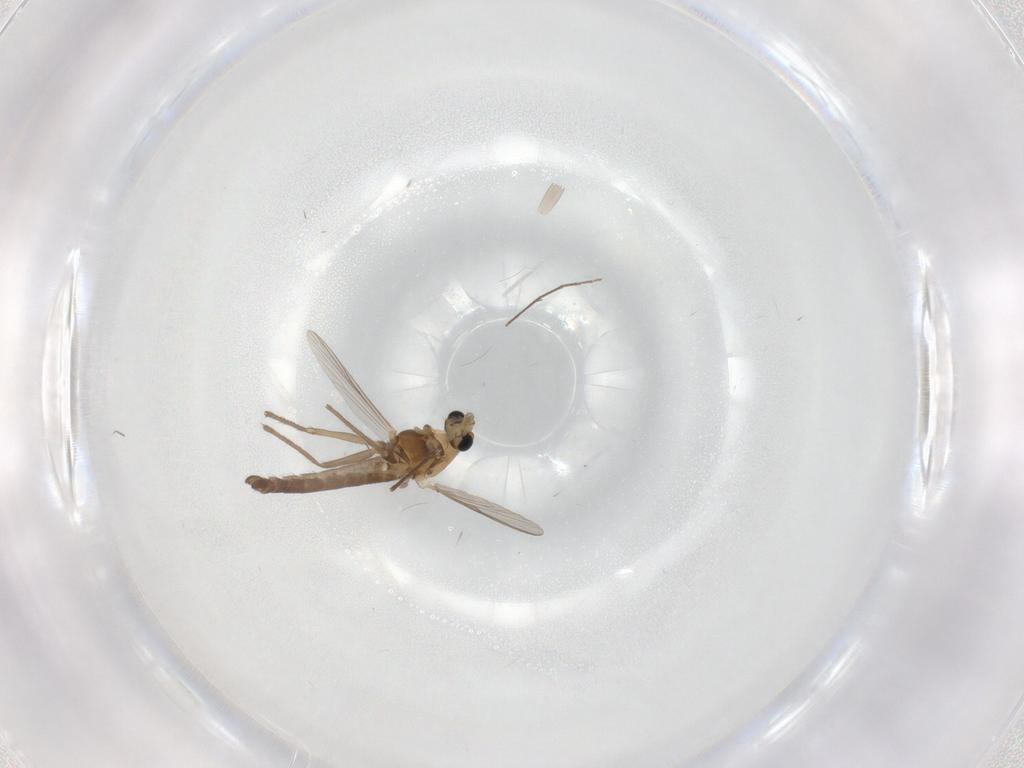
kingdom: Animalia
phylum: Arthropoda
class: Insecta
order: Diptera
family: Chironomidae
